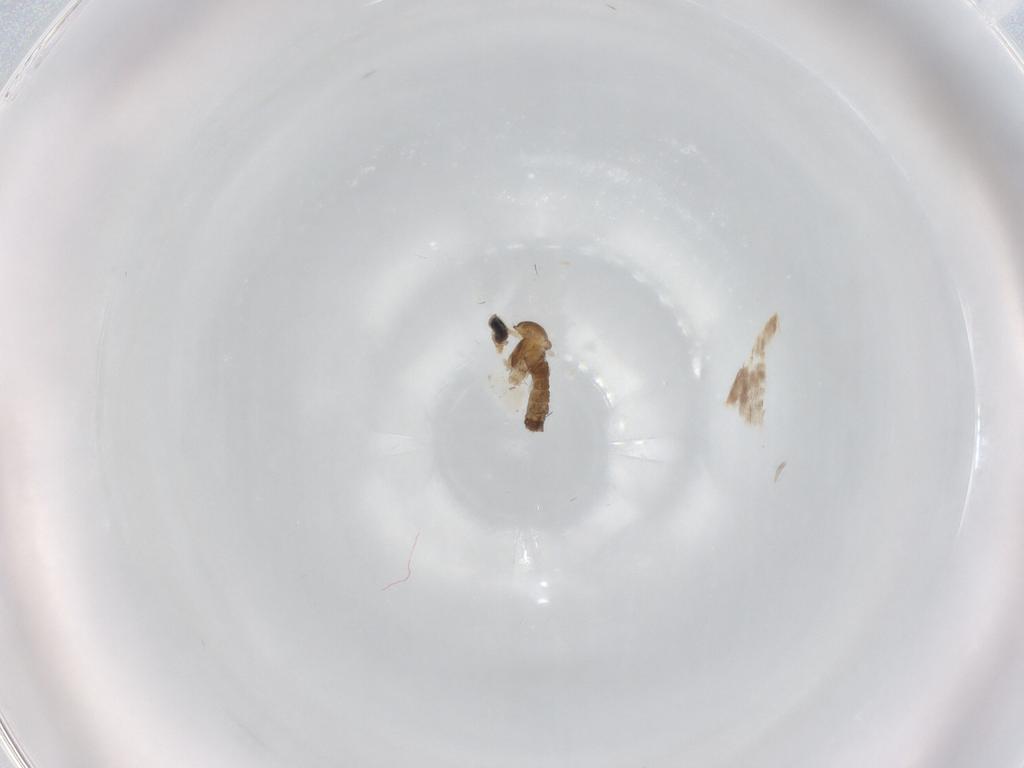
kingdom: Animalia
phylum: Arthropoda
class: Insecta
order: Diptera
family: Cecidomyiidae
